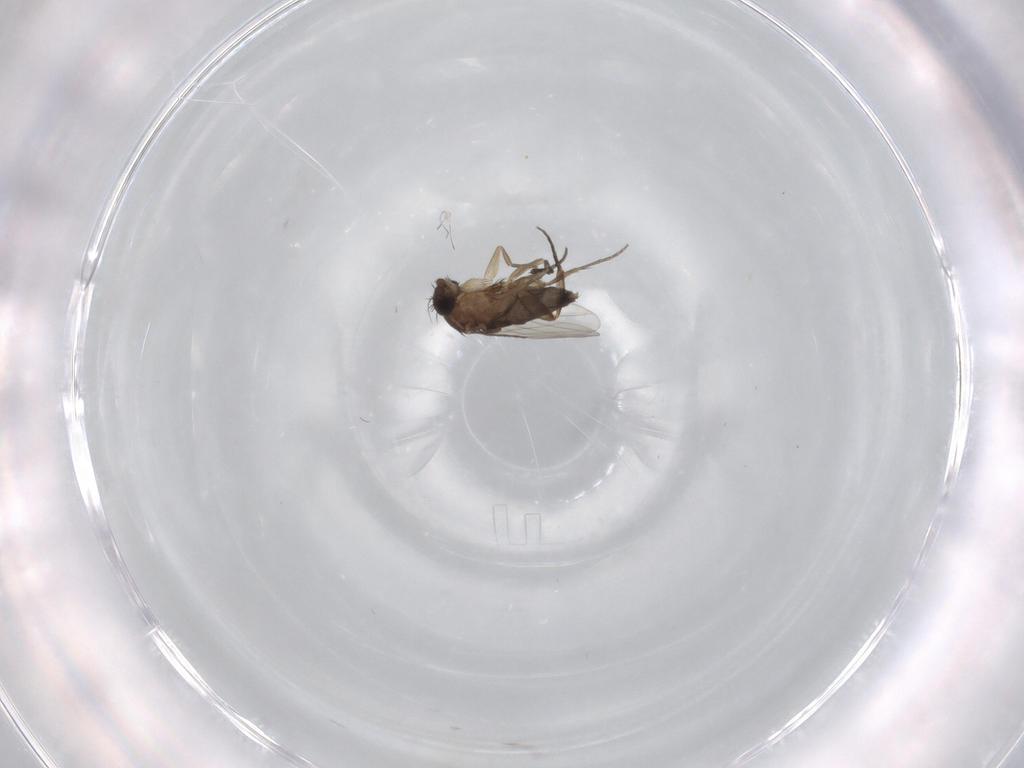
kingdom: Animalia
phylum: Arthropoda
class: Insecta
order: Diptera
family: Phoridae
